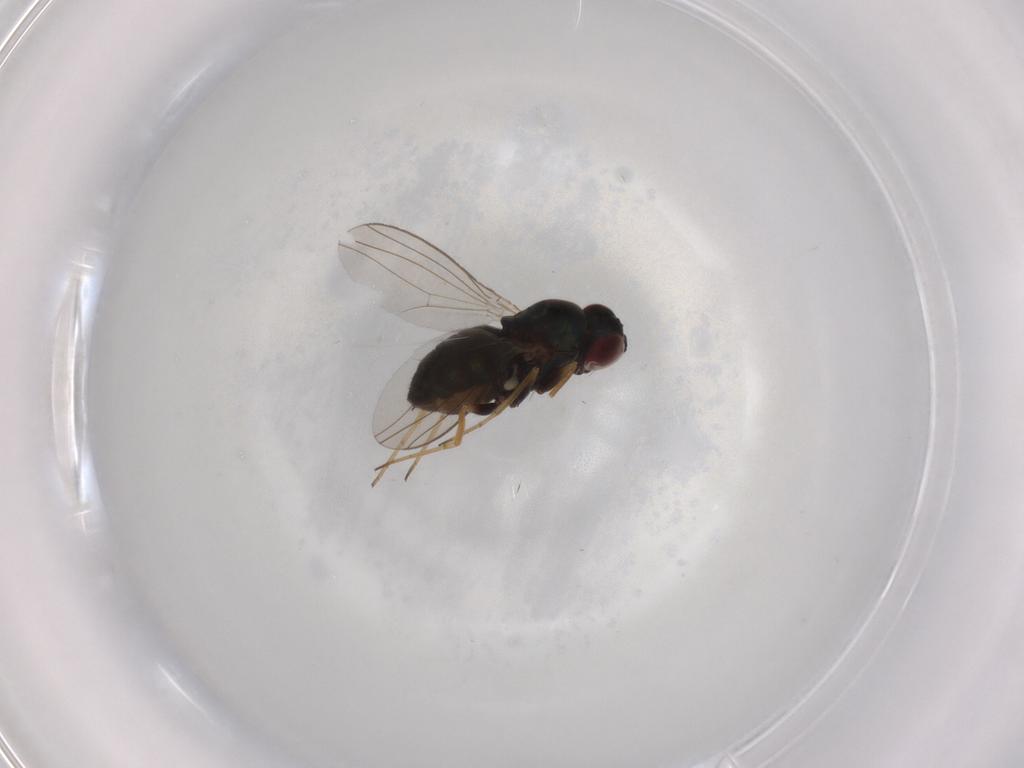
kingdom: Animalia
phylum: Arthropoda
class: Insecta
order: Diptera
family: Dolichopodidae
